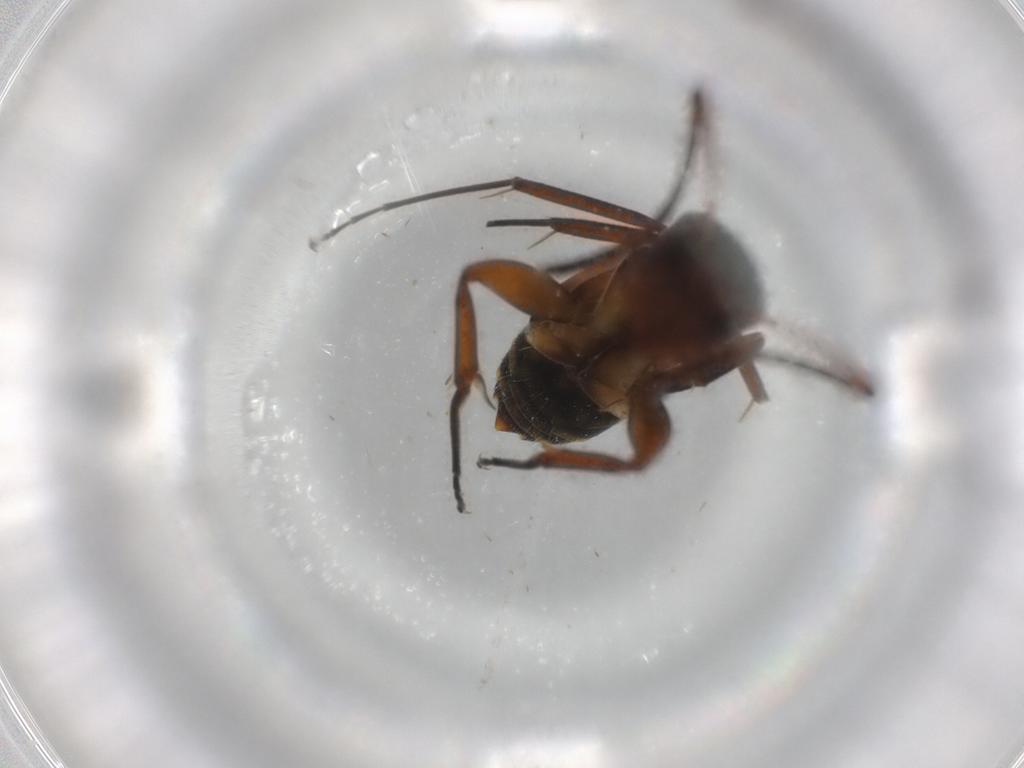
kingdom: Animalia
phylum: Arthropoda
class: Insecta
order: Hymenoptera
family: Formicidae
